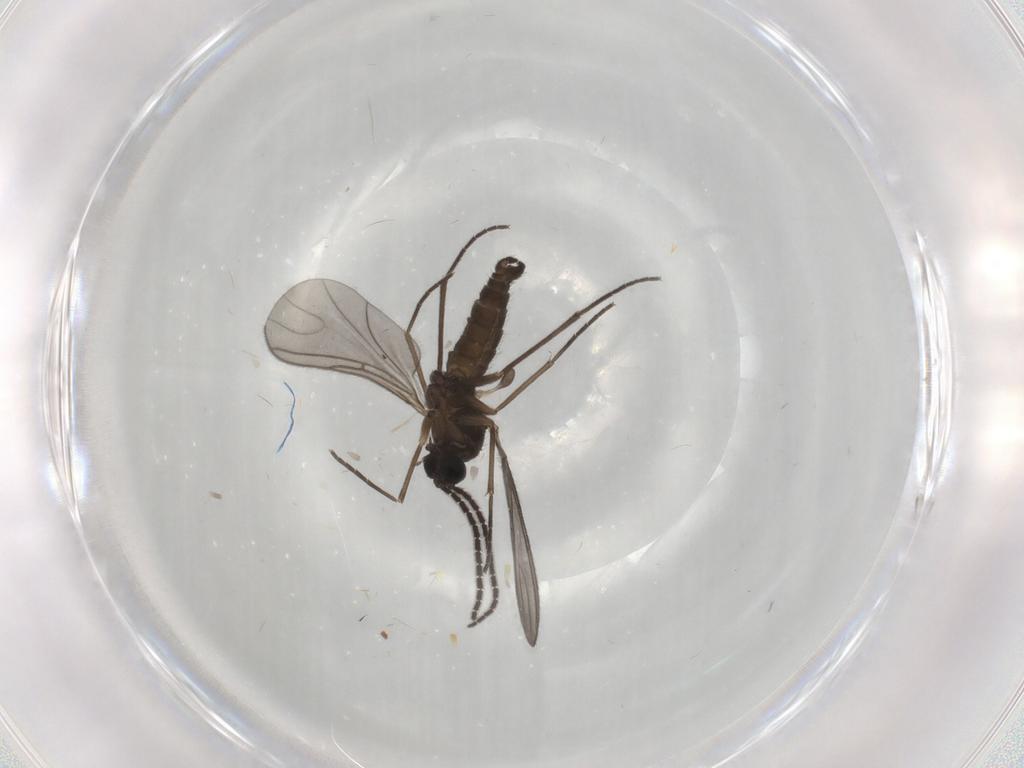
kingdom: Animalia
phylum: Arthropoda
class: Insecta
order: Diptera
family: Sciaridae
